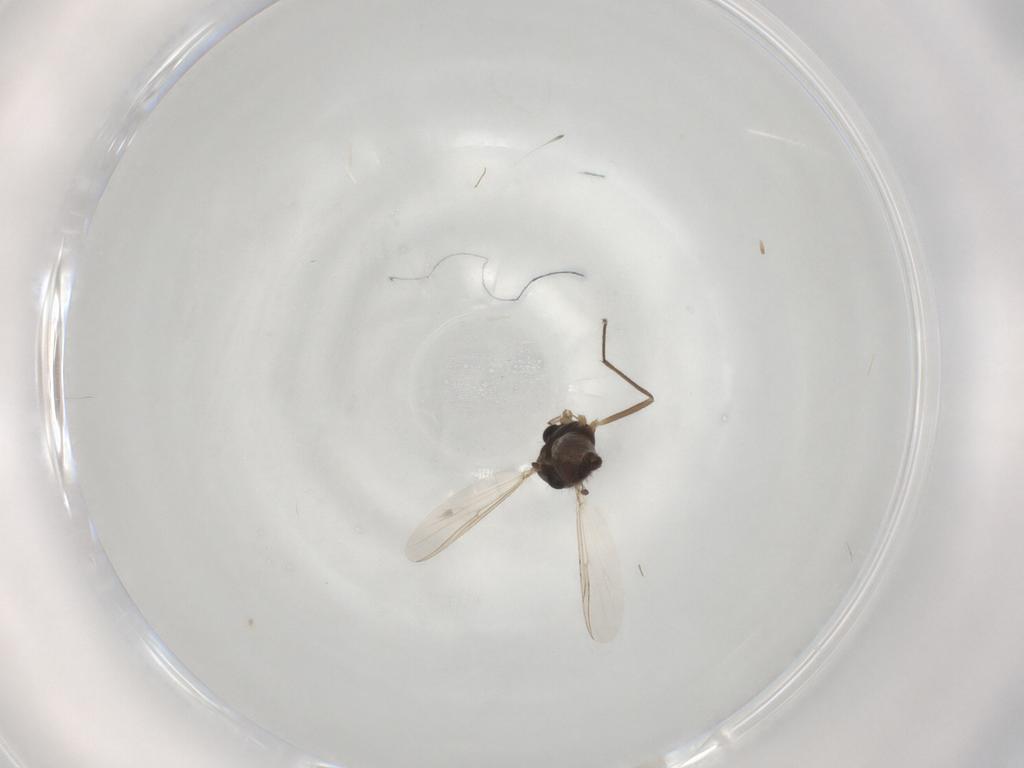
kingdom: Animalia
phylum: Arthropoda
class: Insecta
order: Diptera
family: Chironomidae
